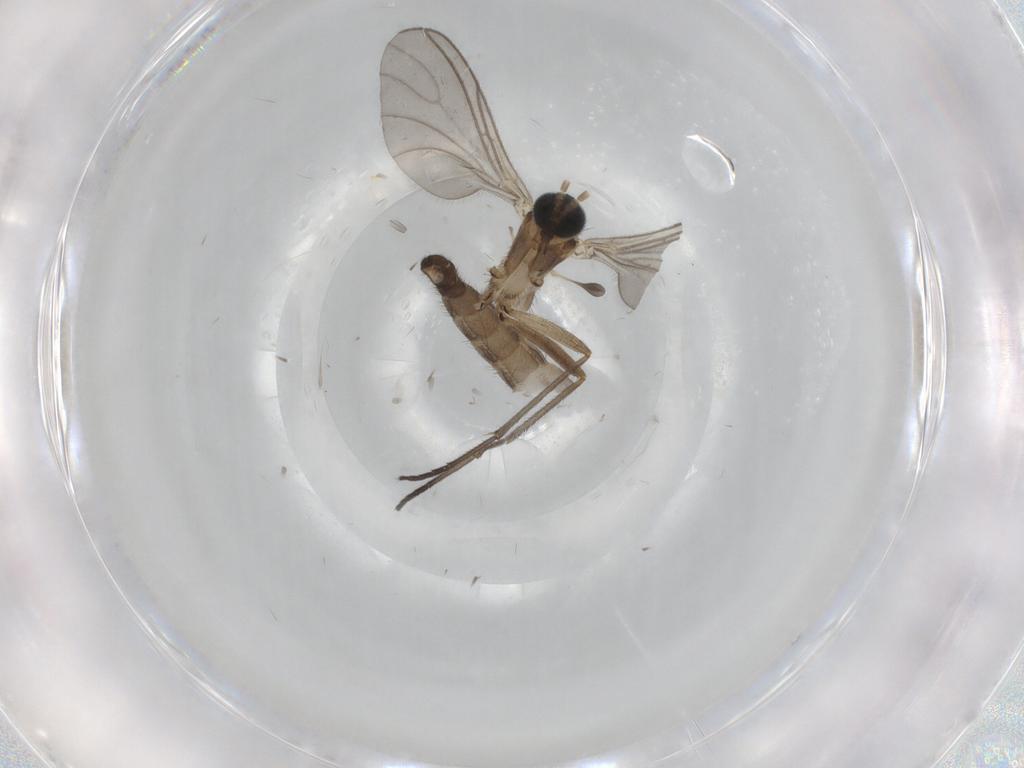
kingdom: Animalia
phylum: Arthropoda
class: Insecta
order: Diptera
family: Sciaridae
